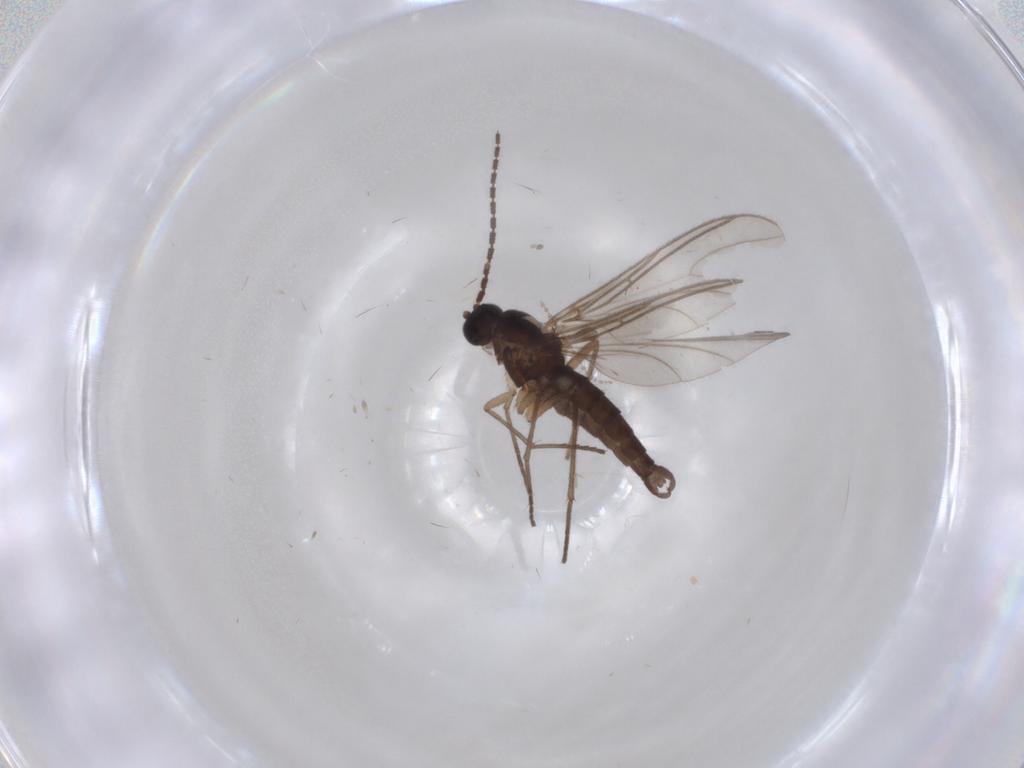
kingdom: Animalia
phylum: Arthropoda
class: Insecta
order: Diptera
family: Sciaridae
